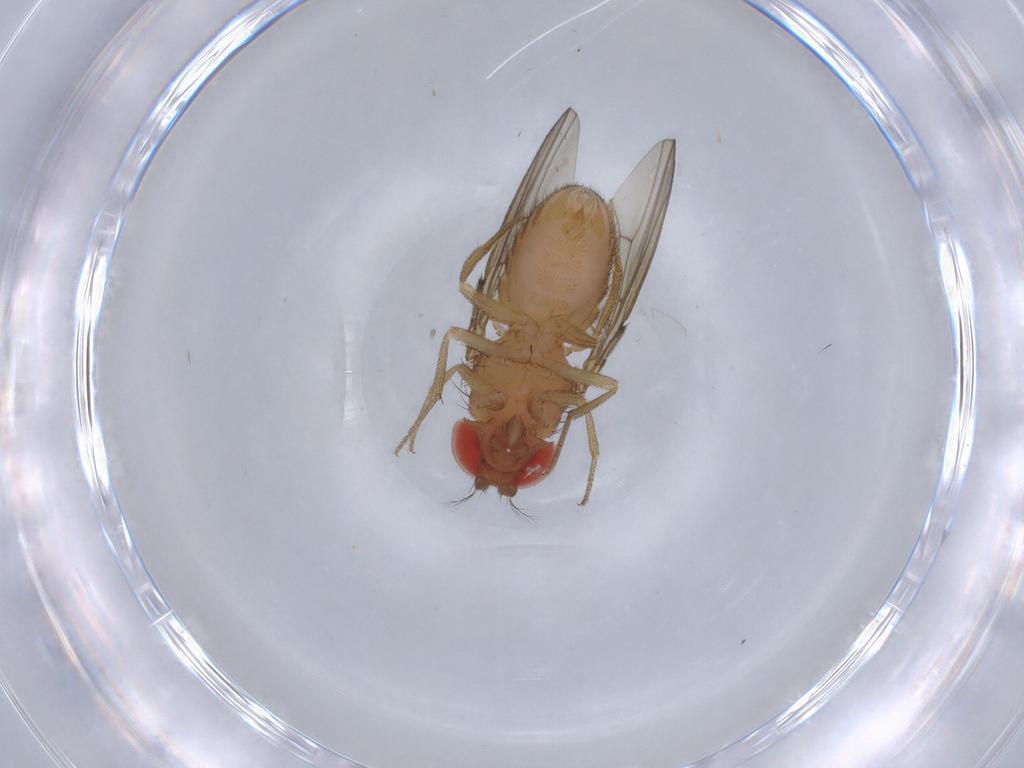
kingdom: Animalia
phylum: Arthropoda
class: Insecta
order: Diptera
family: Drosophilidae
